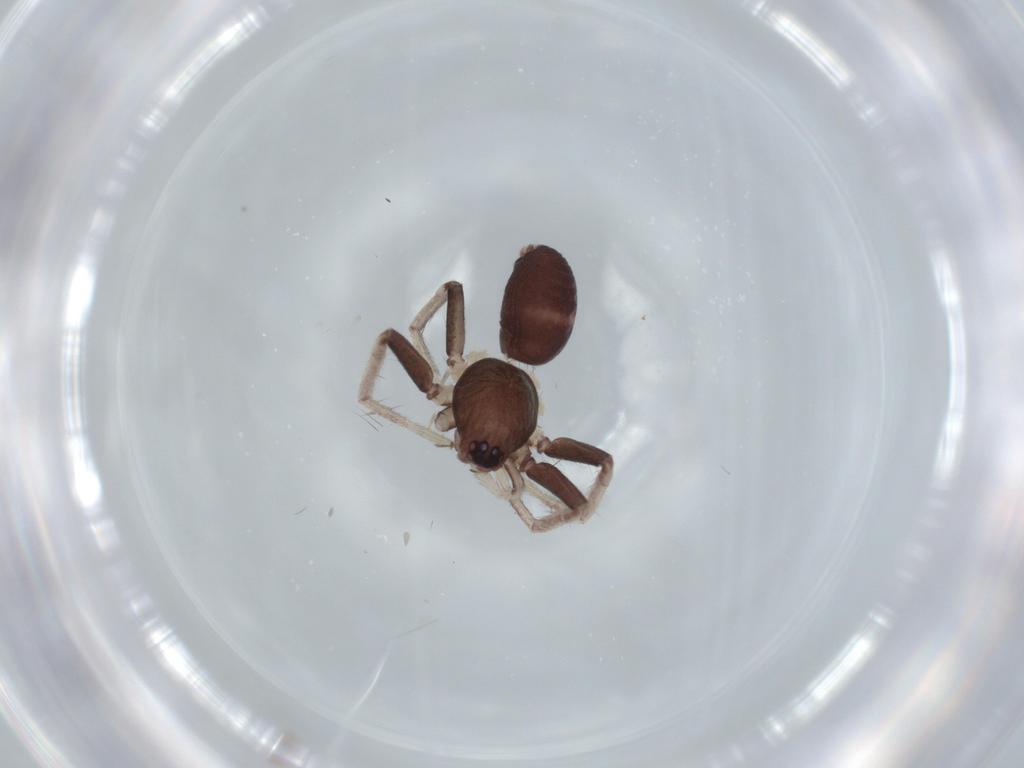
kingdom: Animalia
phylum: Arthropoda
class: Arachnida
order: Araneae
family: Corinnidae
